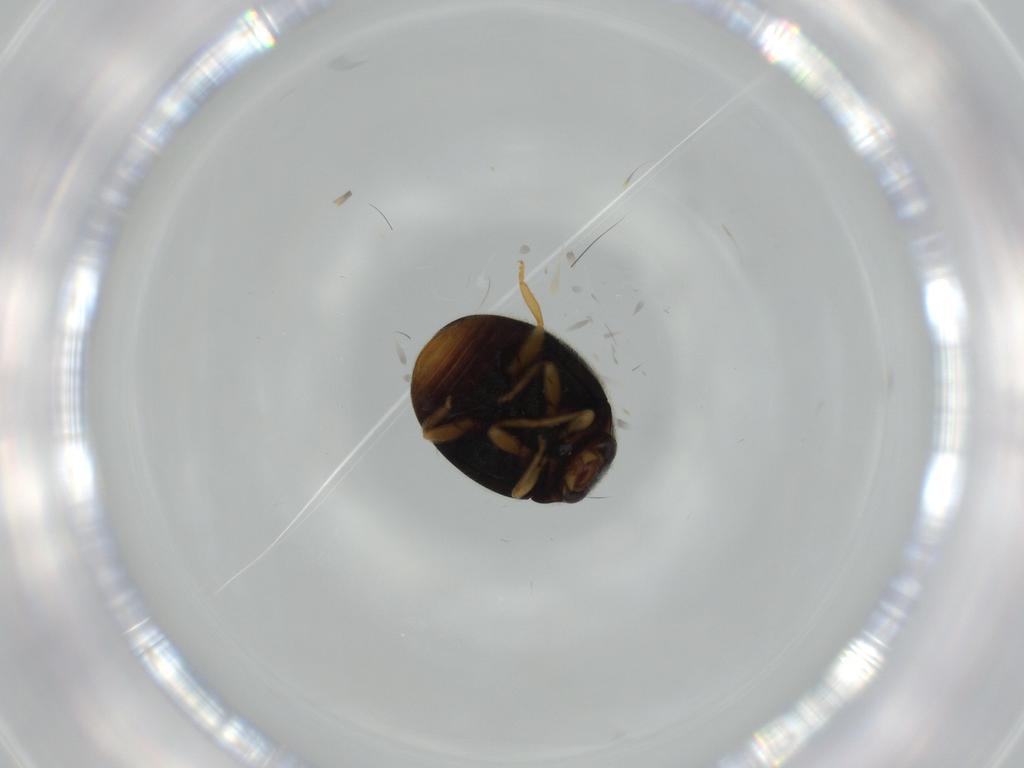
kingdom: Animalia
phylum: Arthropoda
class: Insecta
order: Coleoptera
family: Coccinellidae
